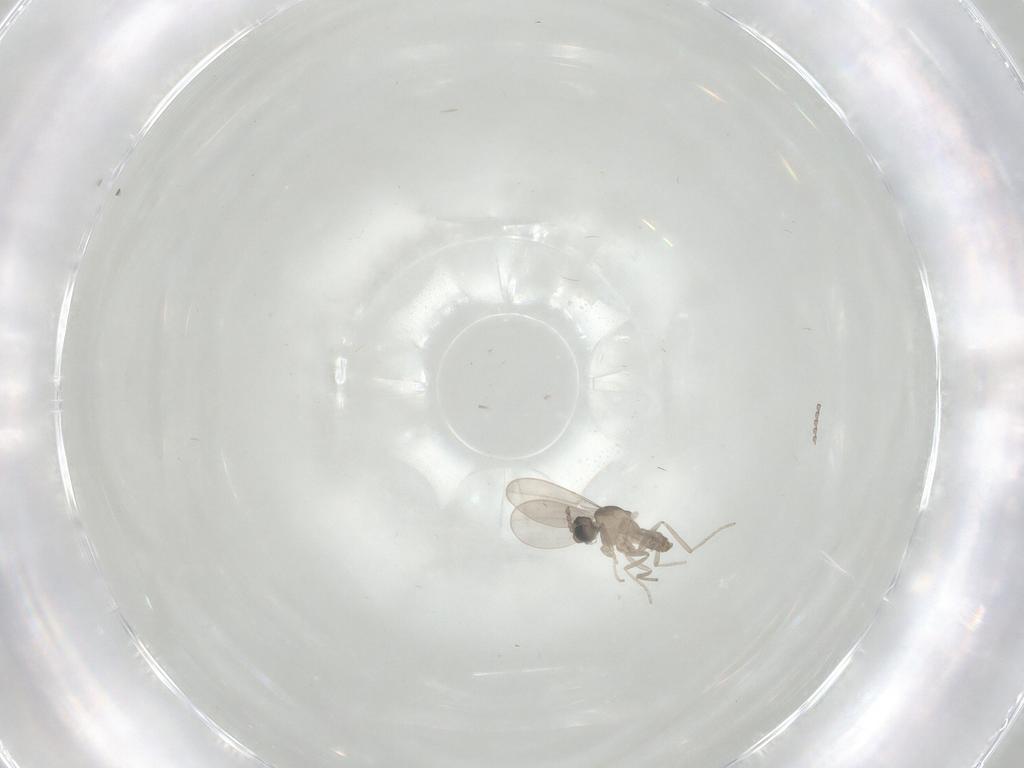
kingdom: Animalia
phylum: Arthropoda
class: Insecta
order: Diptera
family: Cecidomyiidae
